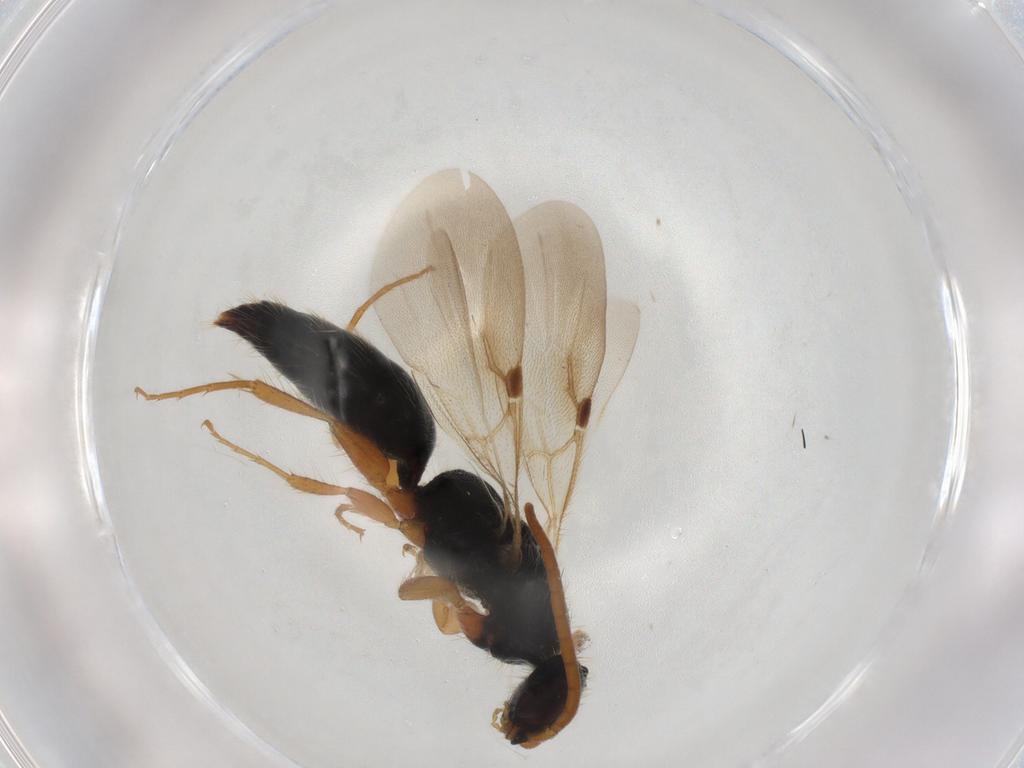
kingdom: Animalia
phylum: Arthropoda
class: Insecta
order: Hymenoptera
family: Bethylidae
